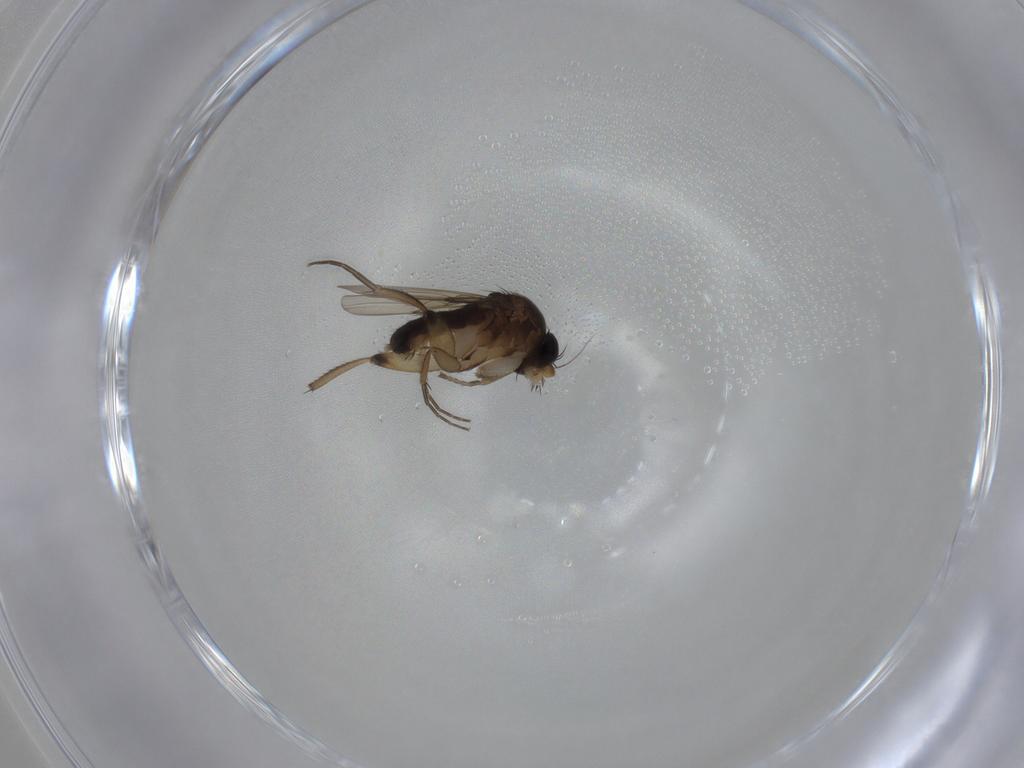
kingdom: Animalia
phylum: Arthropoda
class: Insecta
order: Diptera
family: Phoridae
